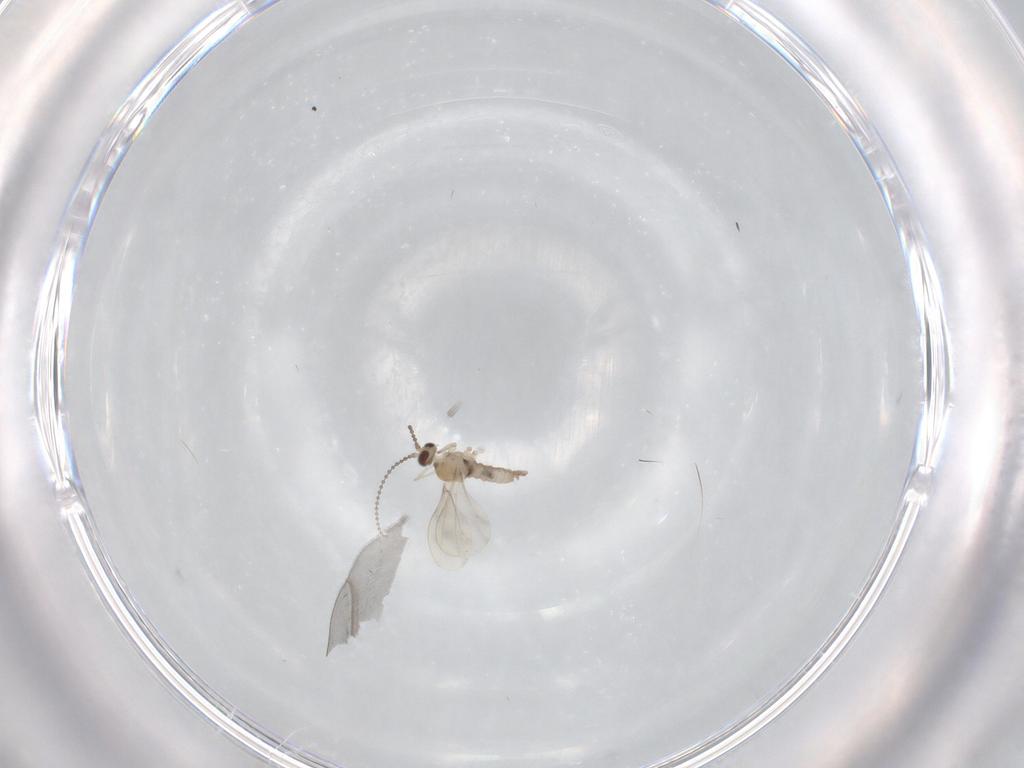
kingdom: Animalia
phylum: Arthropoda
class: Insecta
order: Diptera
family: Cecidomyiidae
